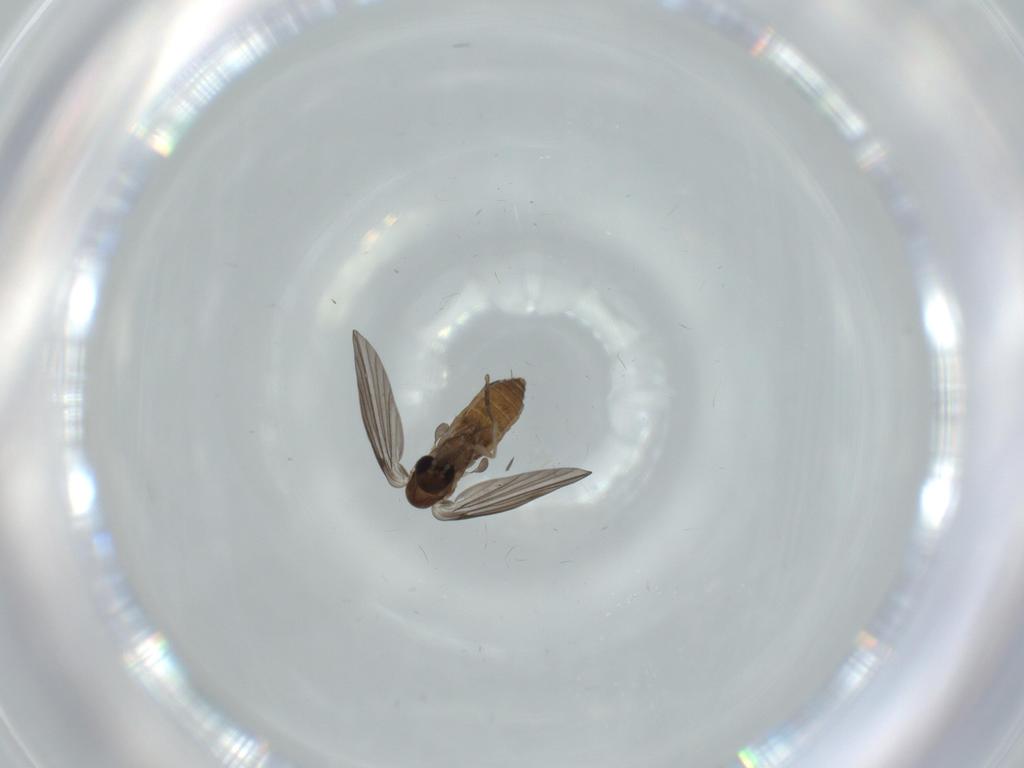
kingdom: Animalia
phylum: Arthropoda
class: Insecta
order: Diptera
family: Psychodidae
